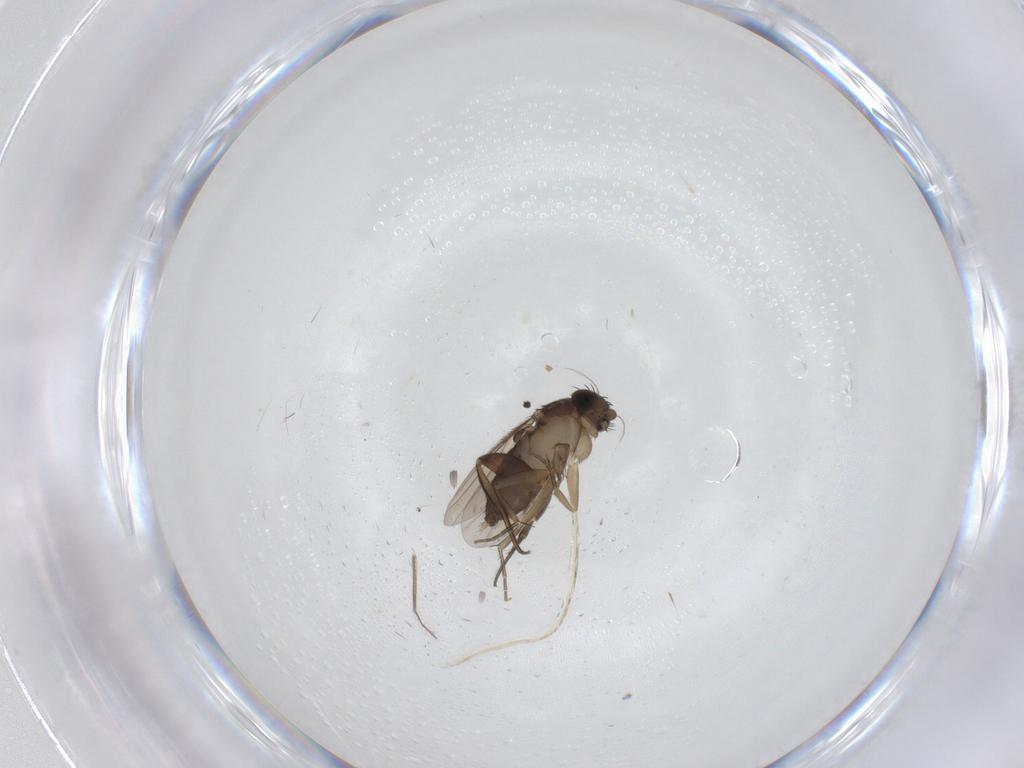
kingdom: Animalia
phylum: Arthropoda
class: Insecta
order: Diptera
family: Phoridae
